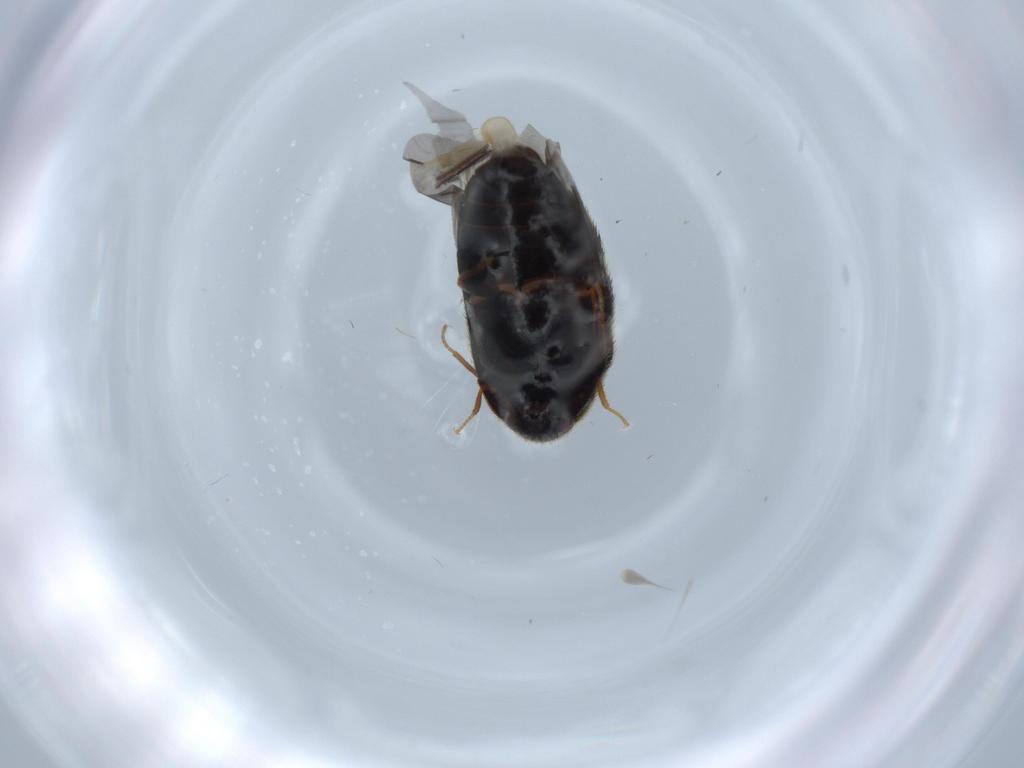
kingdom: Animalia
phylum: Arthropoda
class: Insecta
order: Coleoptera
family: Dermestidae
